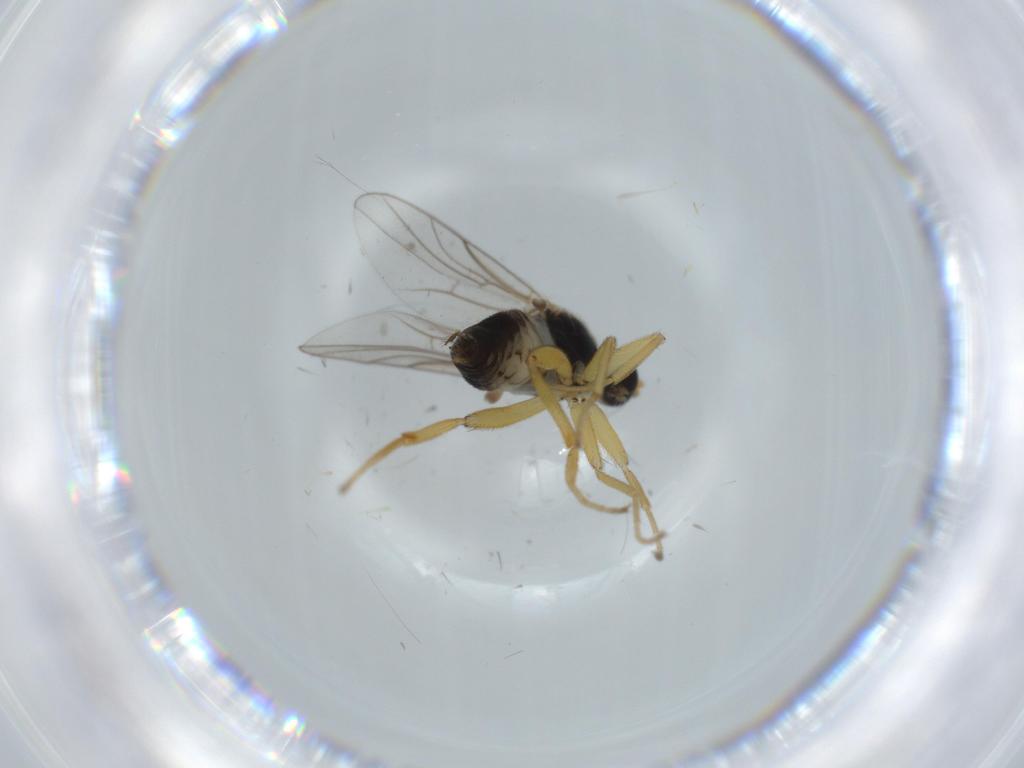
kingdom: Animalia
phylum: Arthropoda
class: Insecta
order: Diptera
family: Hybotidae
